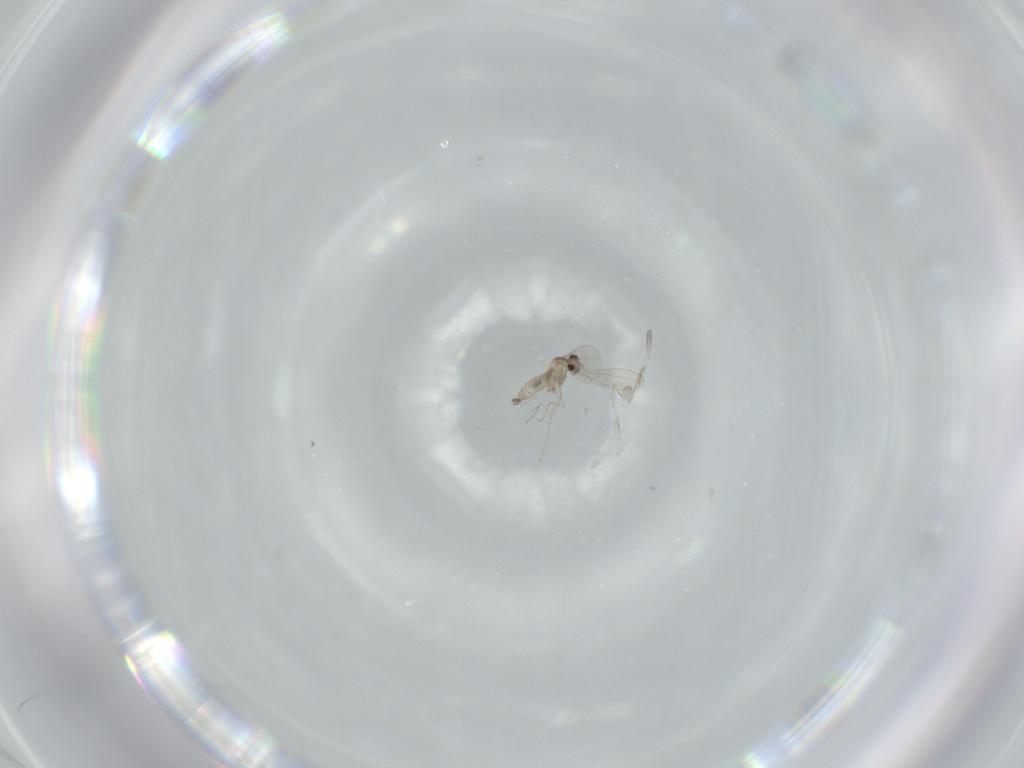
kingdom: Animalia
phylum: Arthropoda
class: Insecta
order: Diptera
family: Cecidomyiidae
